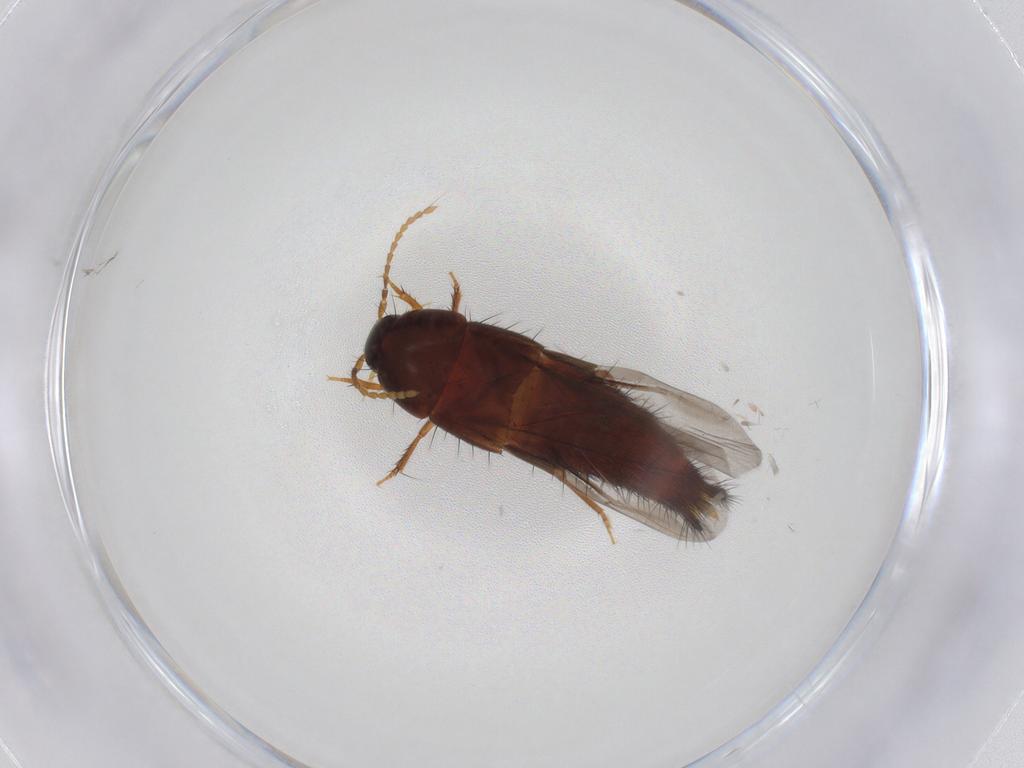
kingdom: Animalia
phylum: Arthropoda
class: Insecta
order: Coleoptera
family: Staphylinidae
